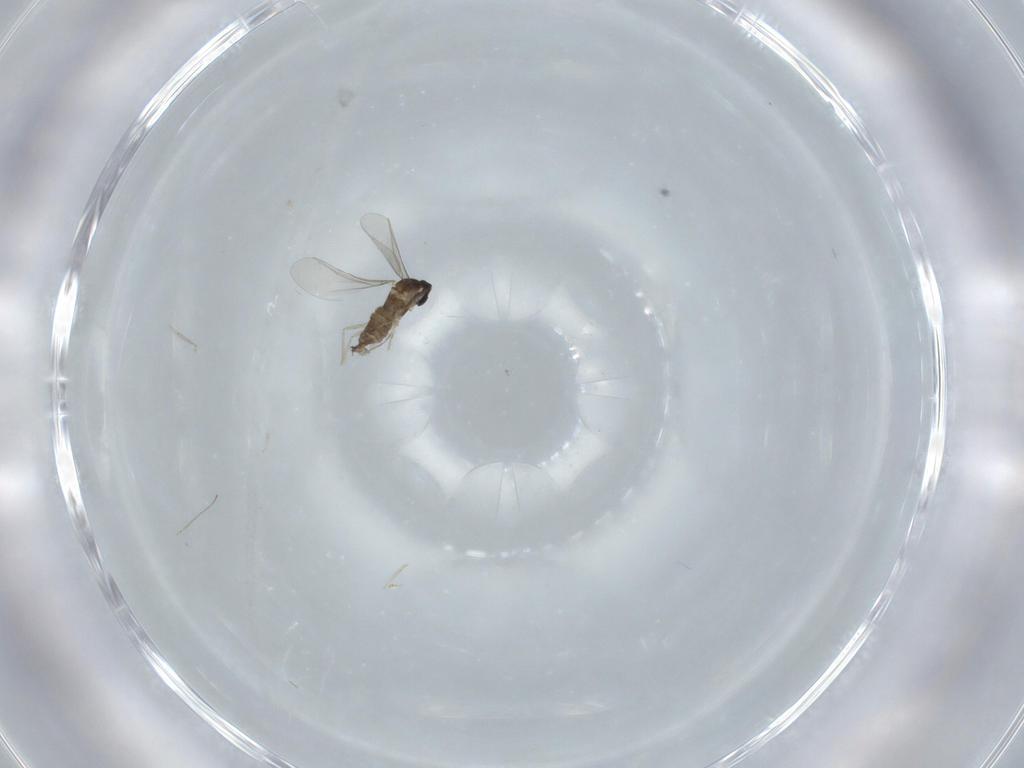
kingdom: Animalia
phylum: Arthropoda
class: Insecta
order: Diptera
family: Cecidomyiidae
